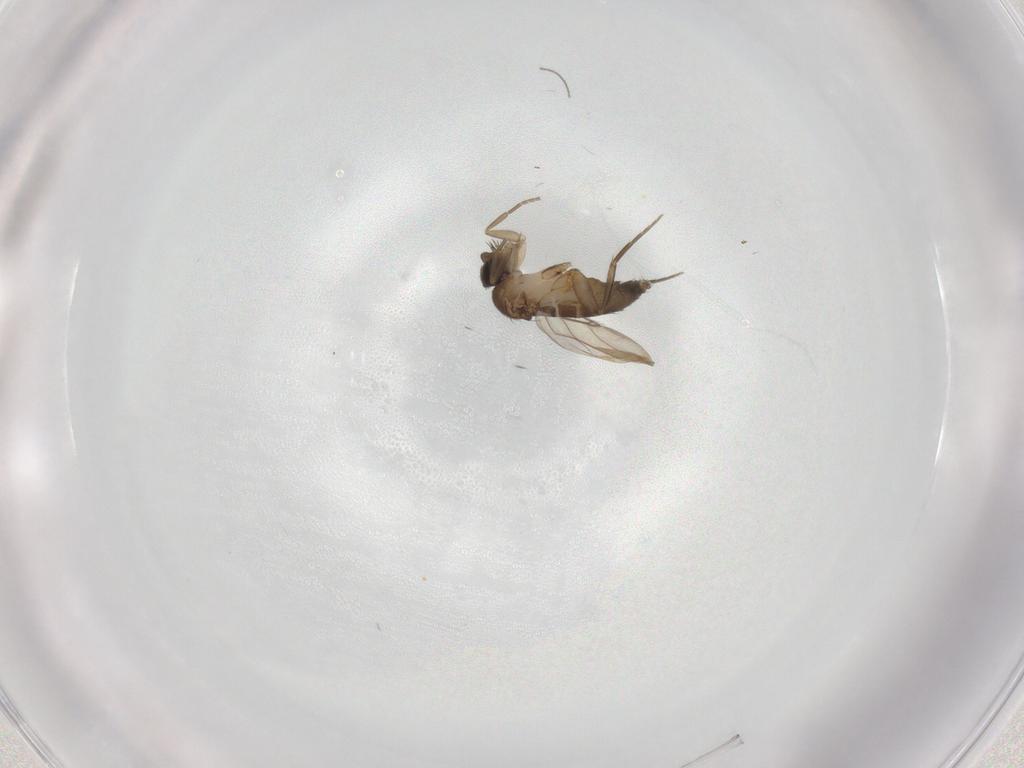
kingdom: Animalia
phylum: Arthropoda
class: Insecta
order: Diptera
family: Phoridae
